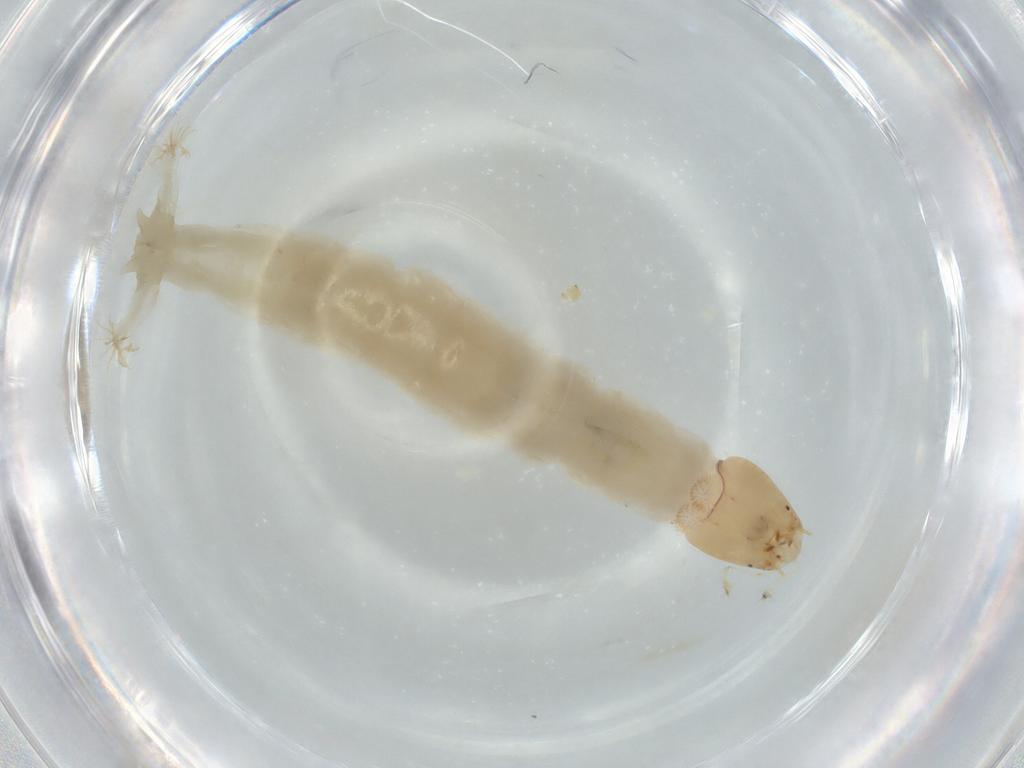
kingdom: Animalia
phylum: Arthropoda
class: Insecta
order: Diptera
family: Chironomidae
